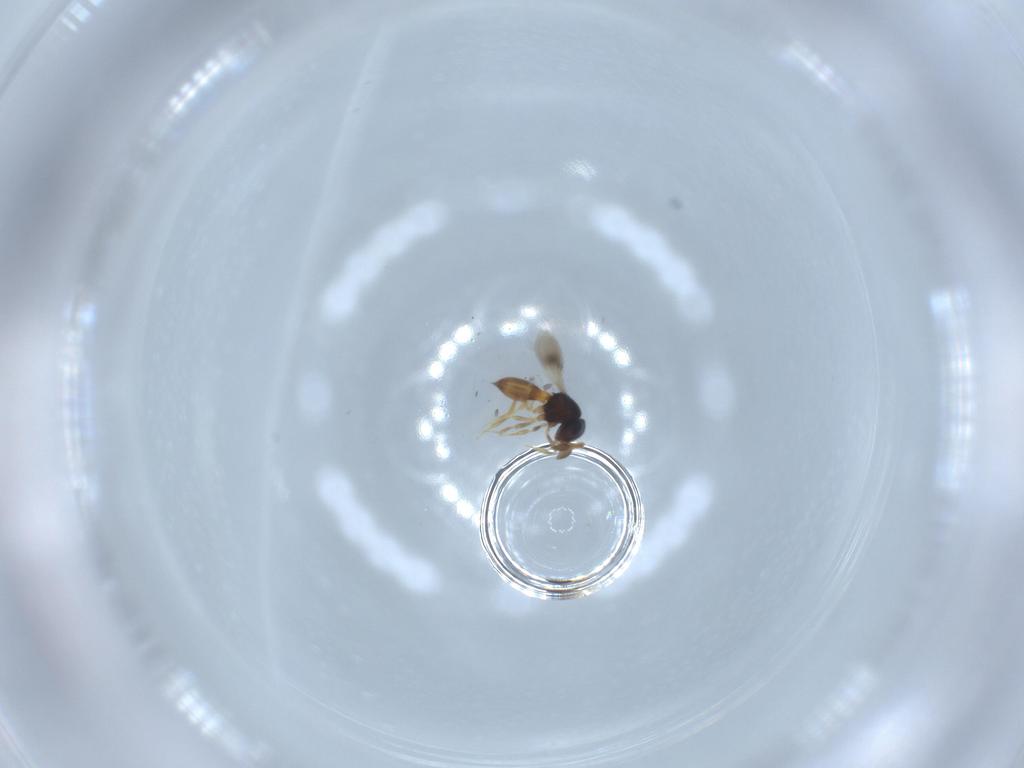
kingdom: Animalia
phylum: Arthropoda
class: Insecta
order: Hymenoptera
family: Scelionidae
